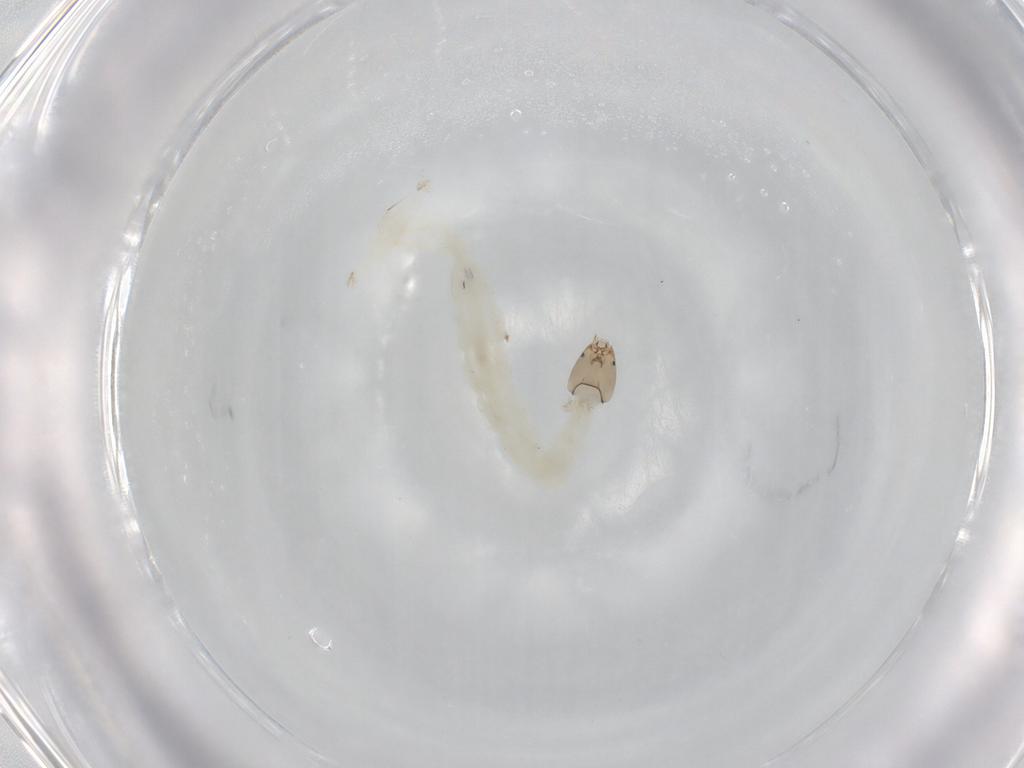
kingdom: Animalia
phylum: Arthropoda
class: Insecta
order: Diptera
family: Chironomidae
